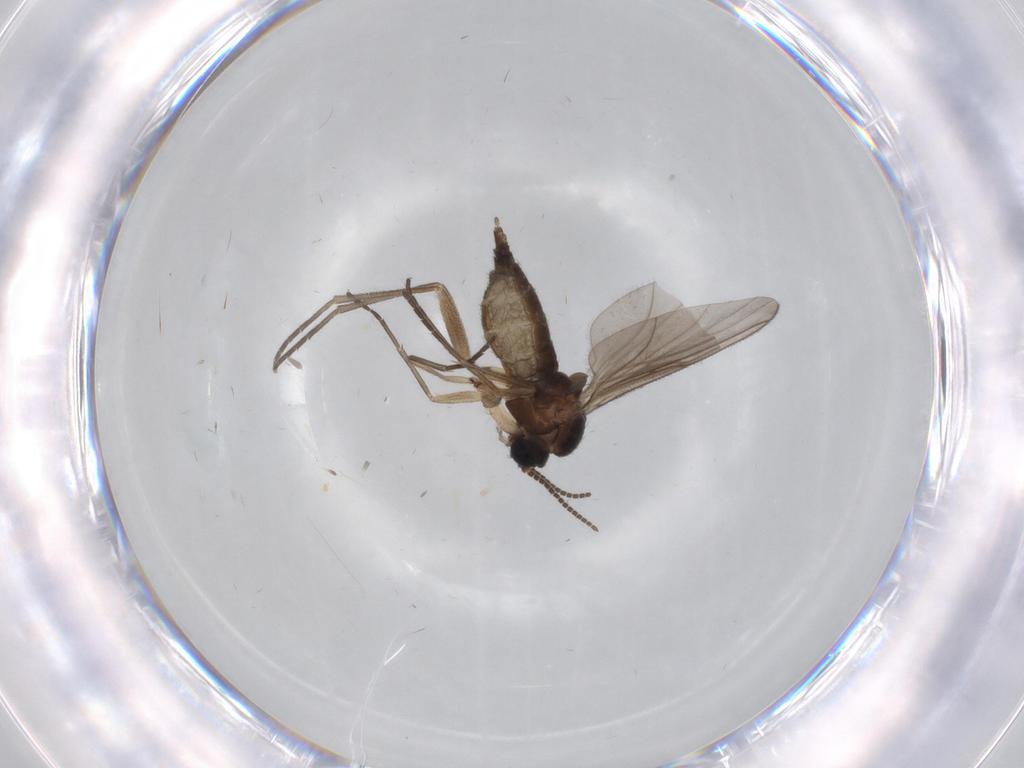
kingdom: Animalia
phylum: Arthropoda
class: Insecta
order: Diptera
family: Sciaridae
